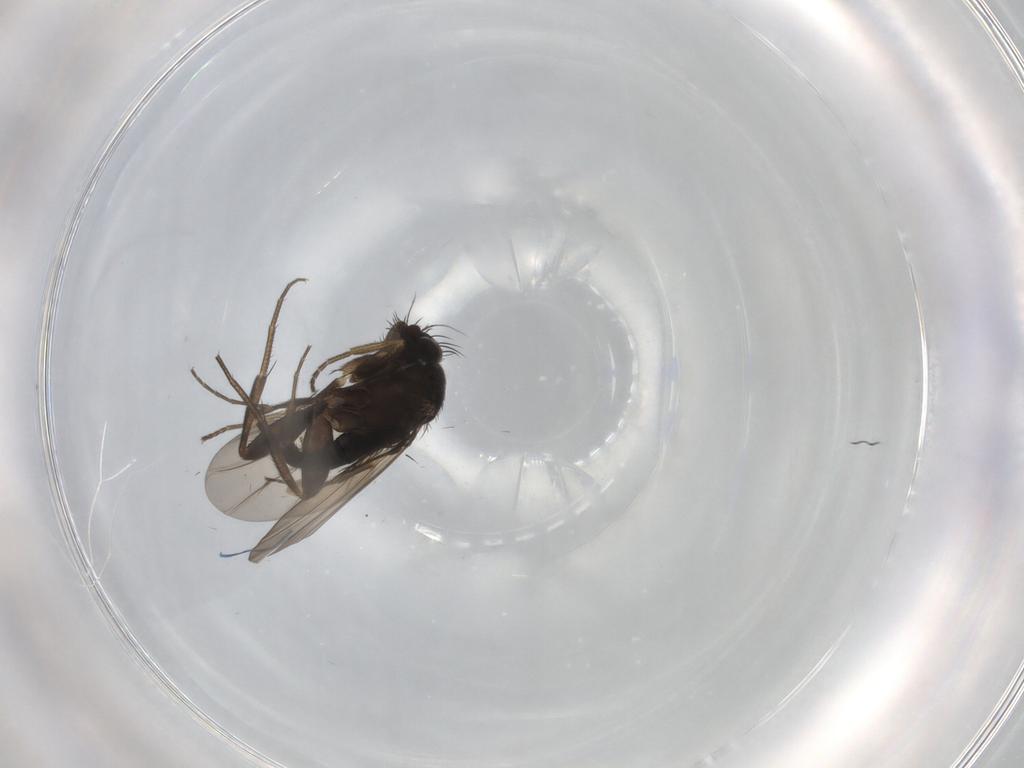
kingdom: Animalia
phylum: Arthropoda
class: Insecta
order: Diptera
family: Phoridae
